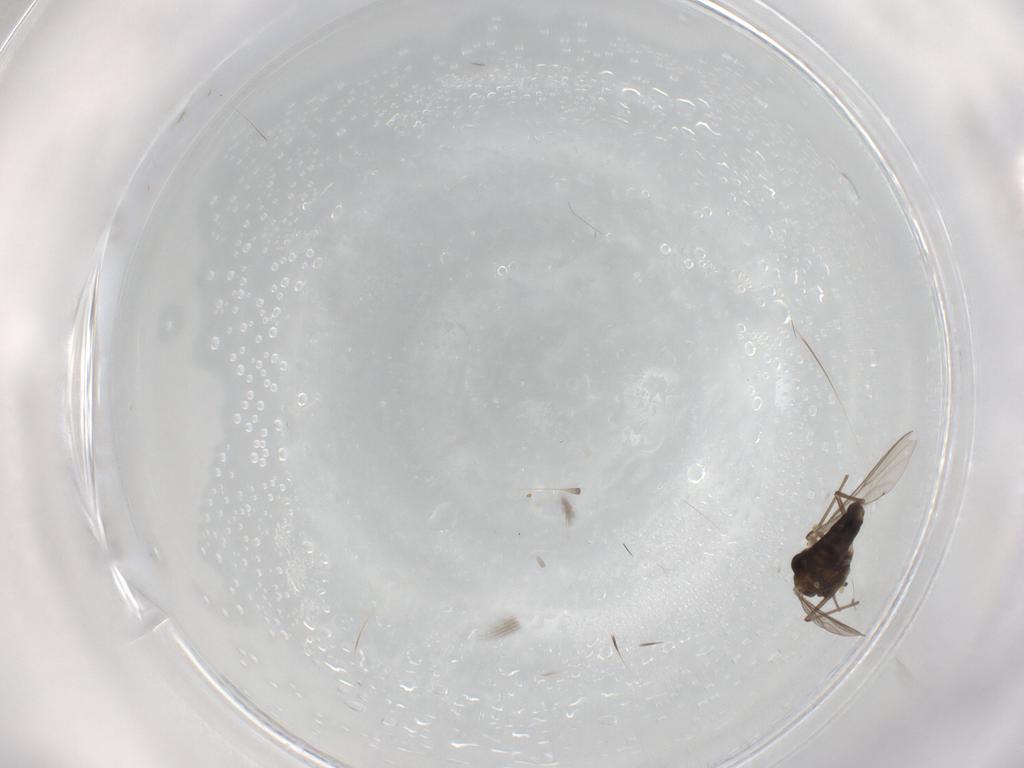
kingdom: Animalia
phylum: Arthropoda
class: Insecta
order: Diptera
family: Chironomidae
